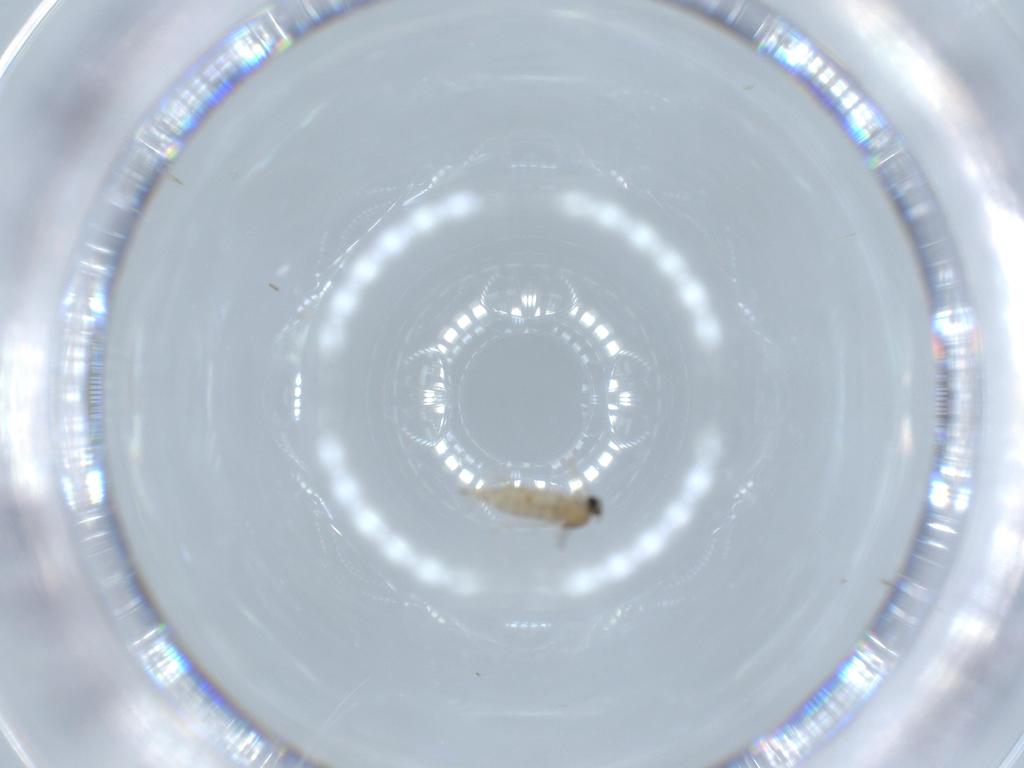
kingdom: Animalia
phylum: Arthropoda
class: Insecta
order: Diptera
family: Cecidomyiidae
